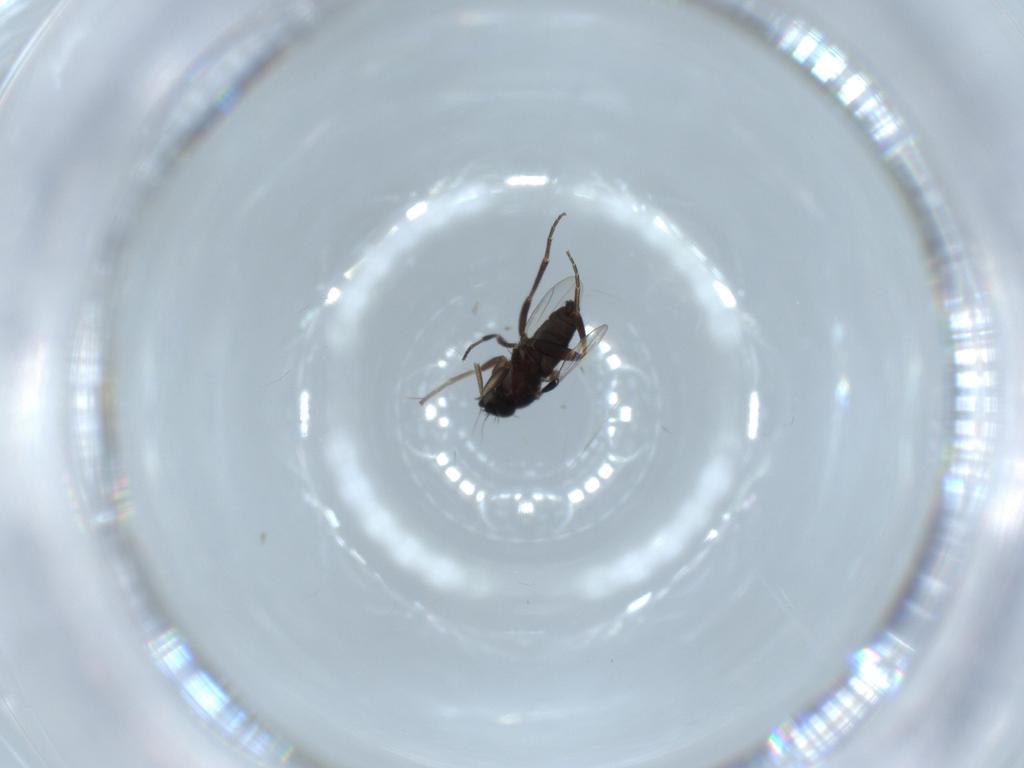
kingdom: Animalia
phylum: Arthropoda
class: Insecta
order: Diptera
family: Phoridae
